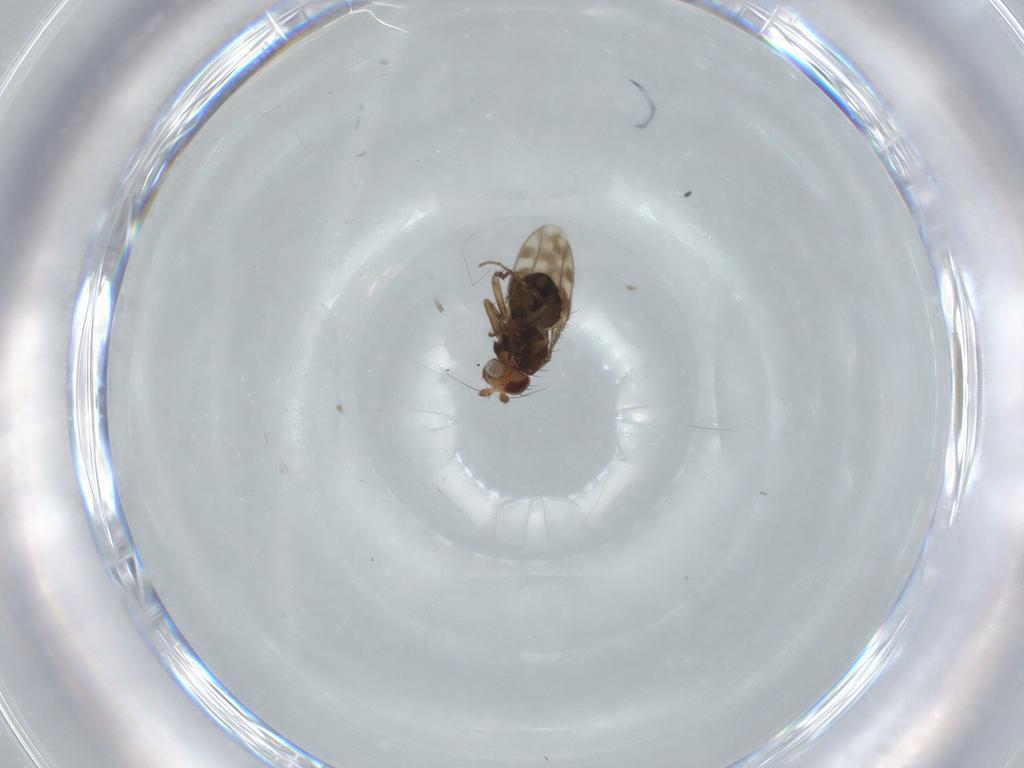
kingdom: Animalia
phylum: Arthropoda
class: Insecta
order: Diptera
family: Sphaeroceridae
